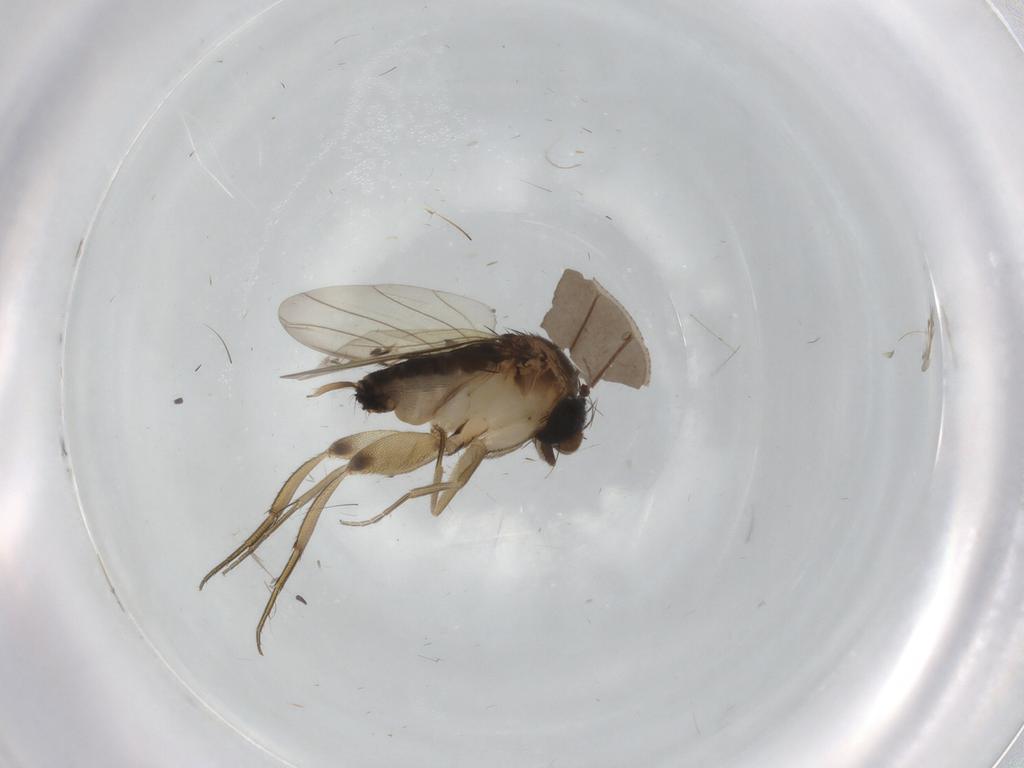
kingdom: Animalia
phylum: Arthropoda
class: Insecta
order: Diptera
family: Phoridae
